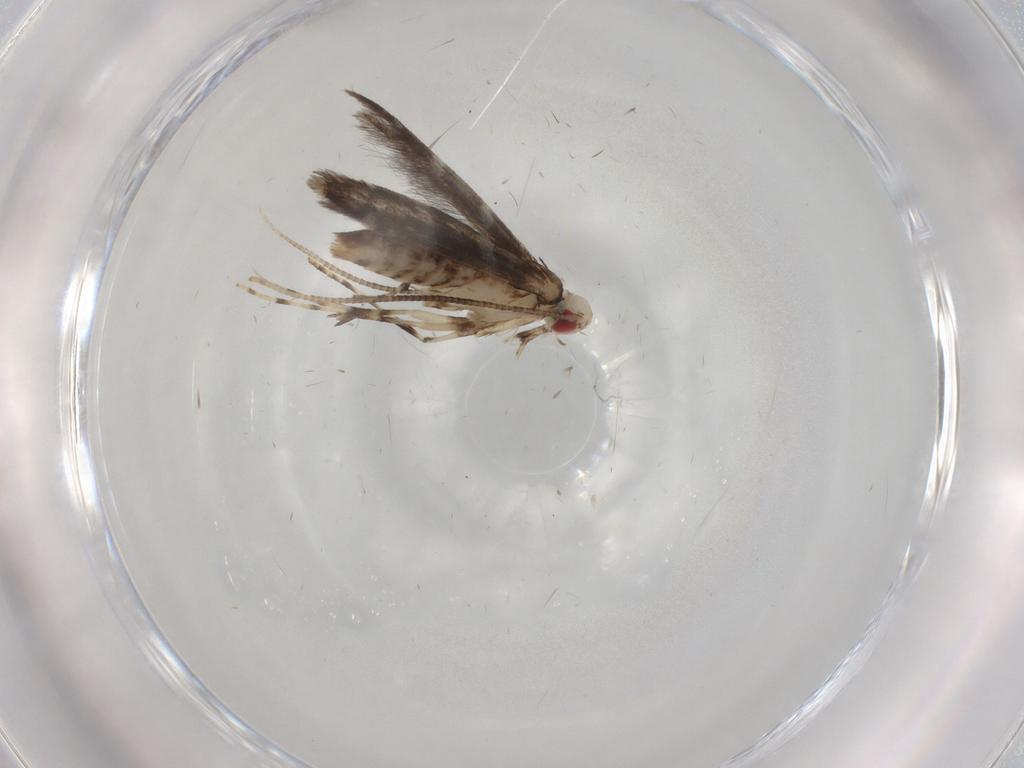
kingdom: Animalia
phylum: Arthropoda
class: Insecta
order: Lepidoptera
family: Gracillariidae
